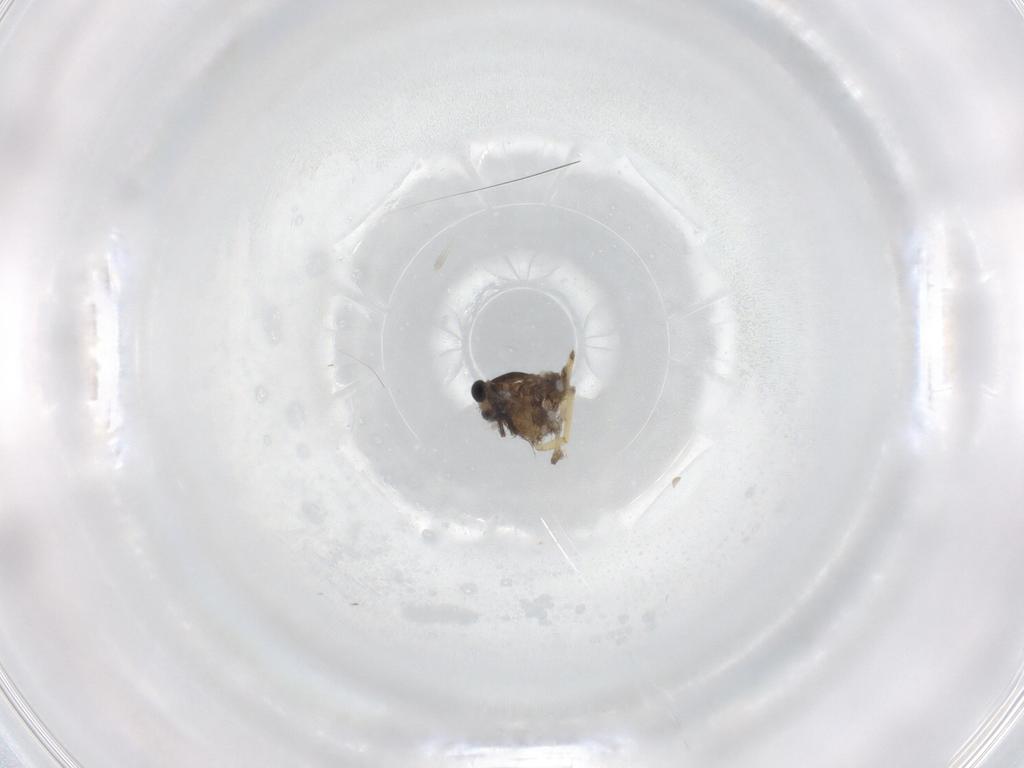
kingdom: Animalia
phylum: Arthropoda
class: Insecta
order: Diptera
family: Chironomidae
